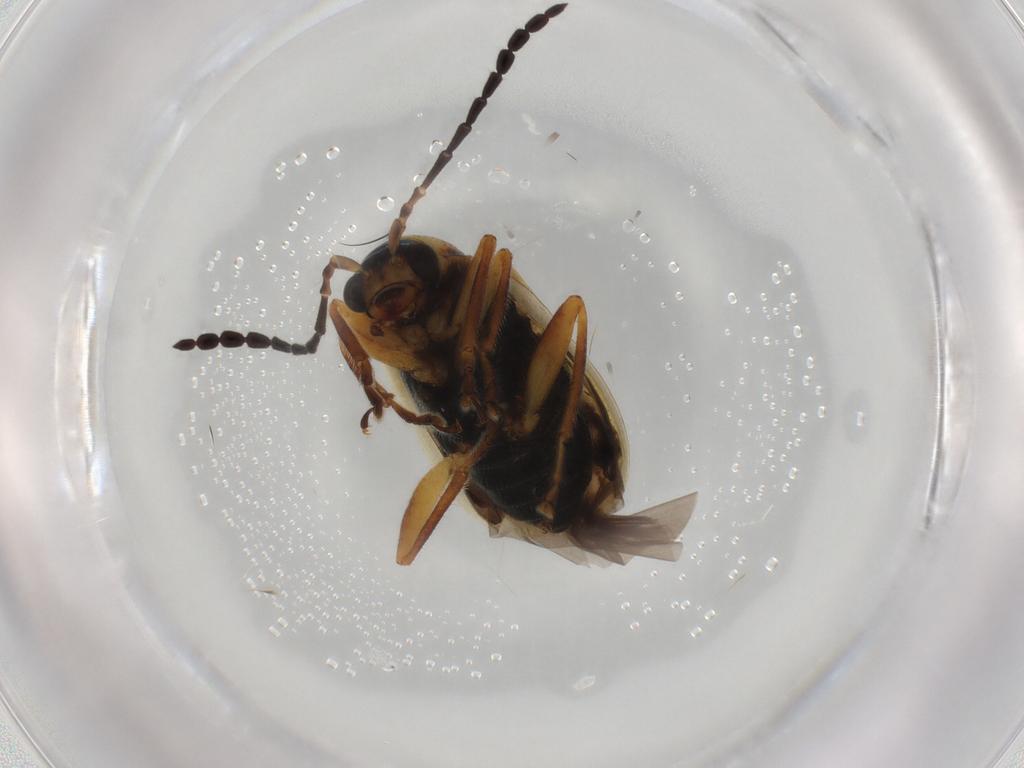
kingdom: Animalia
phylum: Arthropoda
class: Insecta
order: Coleoptera
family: Chrysomelidae
